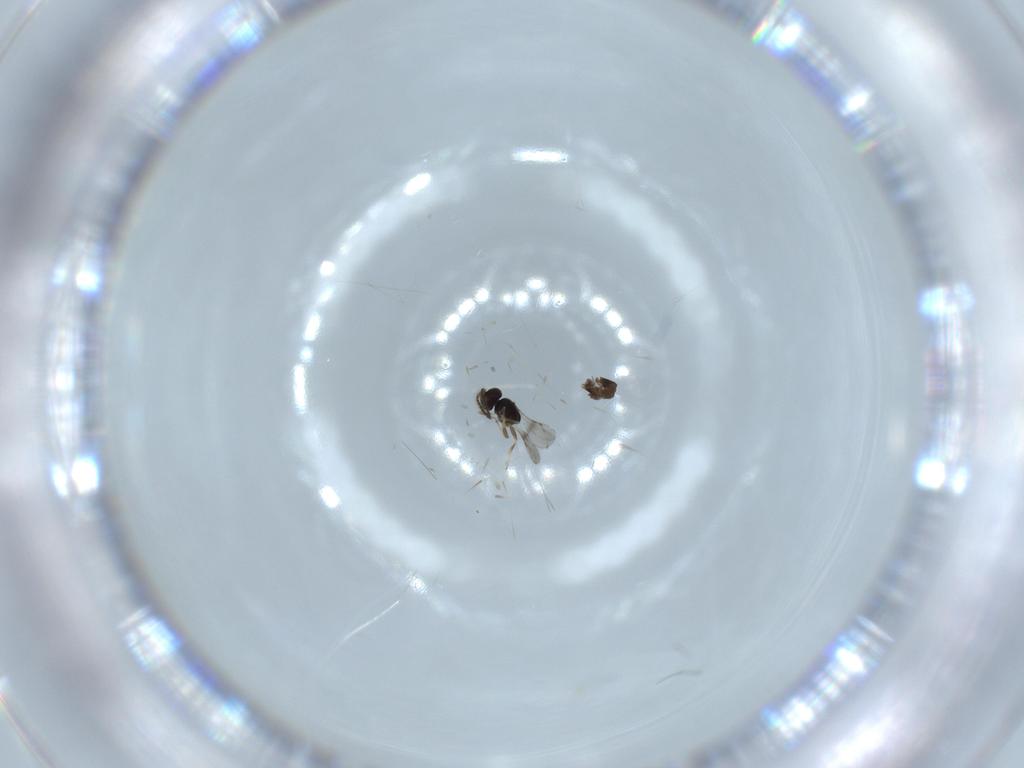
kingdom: Animalia
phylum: Arthropoda
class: Insecta
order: Hymenoptera
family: Ceraphronidae
